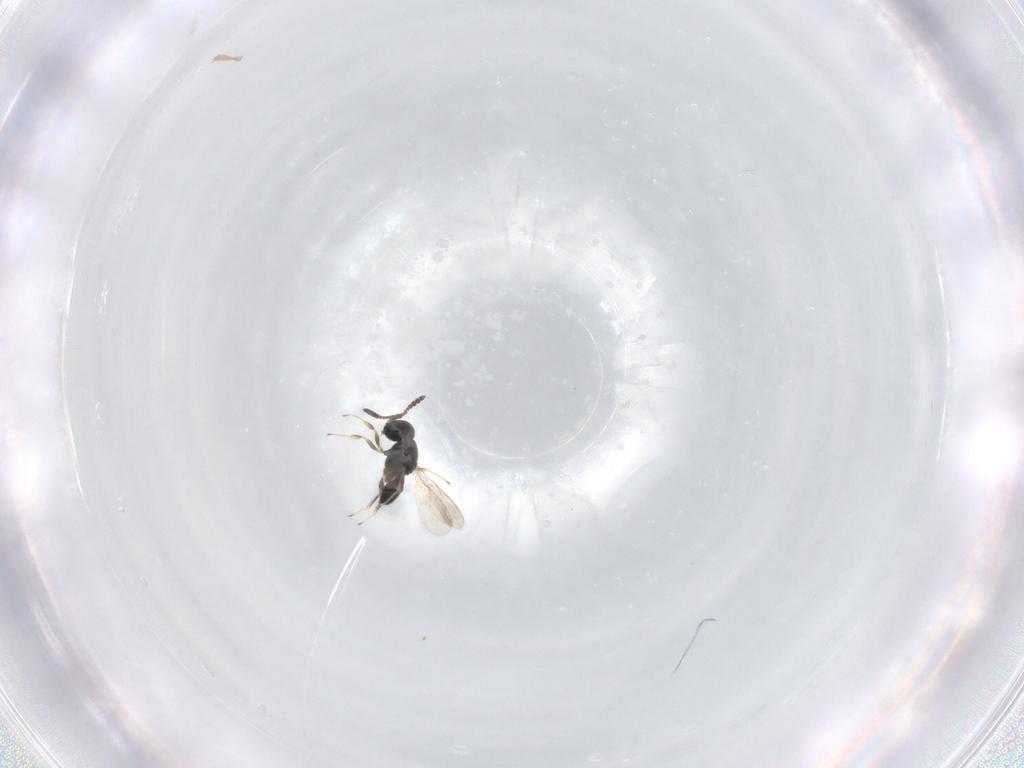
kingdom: Animalia
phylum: Arthropoda
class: Insecta
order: Hymenoptera
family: Scelionidae
